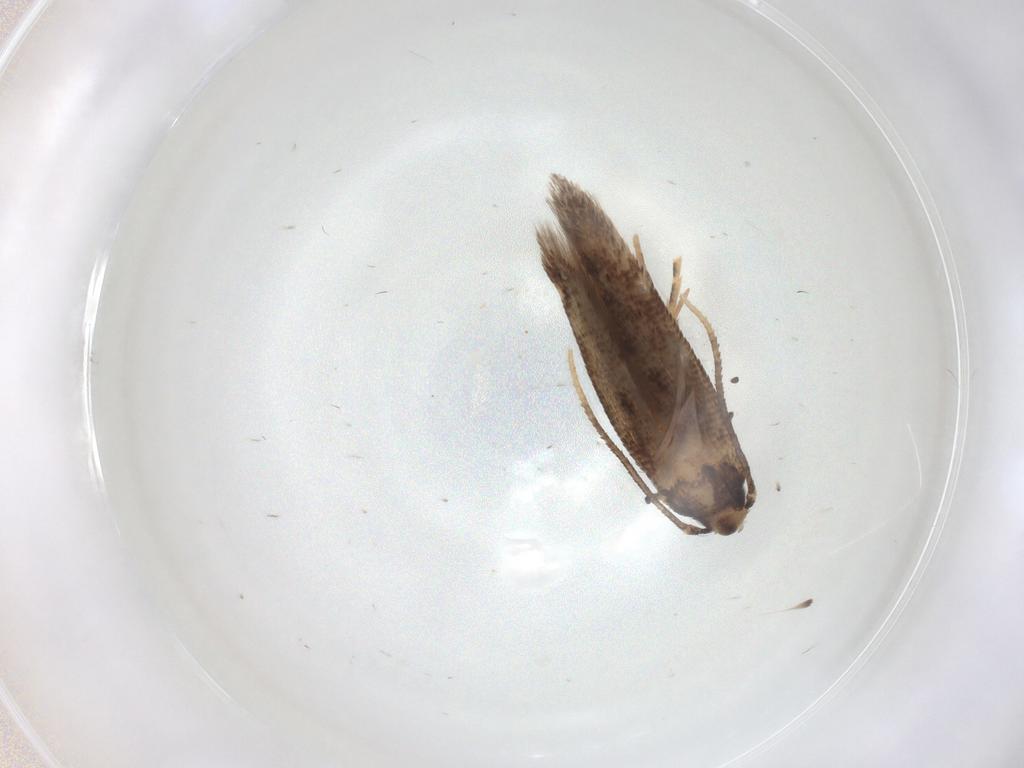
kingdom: Animalia
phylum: Arthropoda
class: Insecta
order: Lepidoptera
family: Cosmopterigidae
